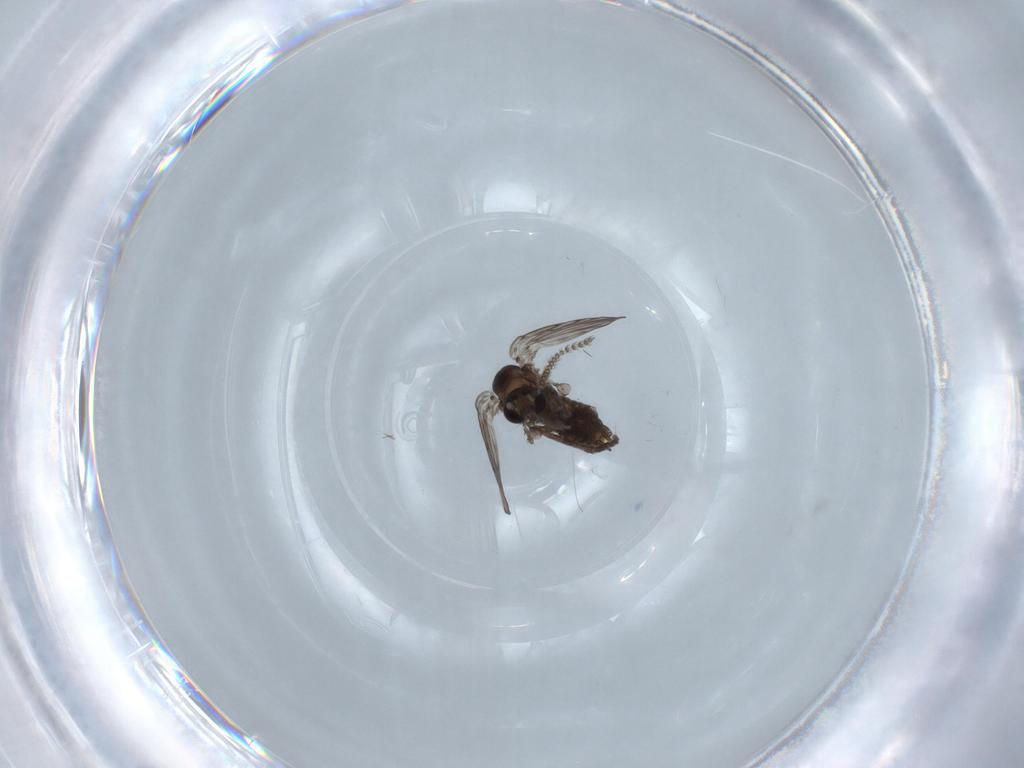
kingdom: Animalia
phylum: Arthropoda
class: Insecta
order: Diptera
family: Psychodidae
